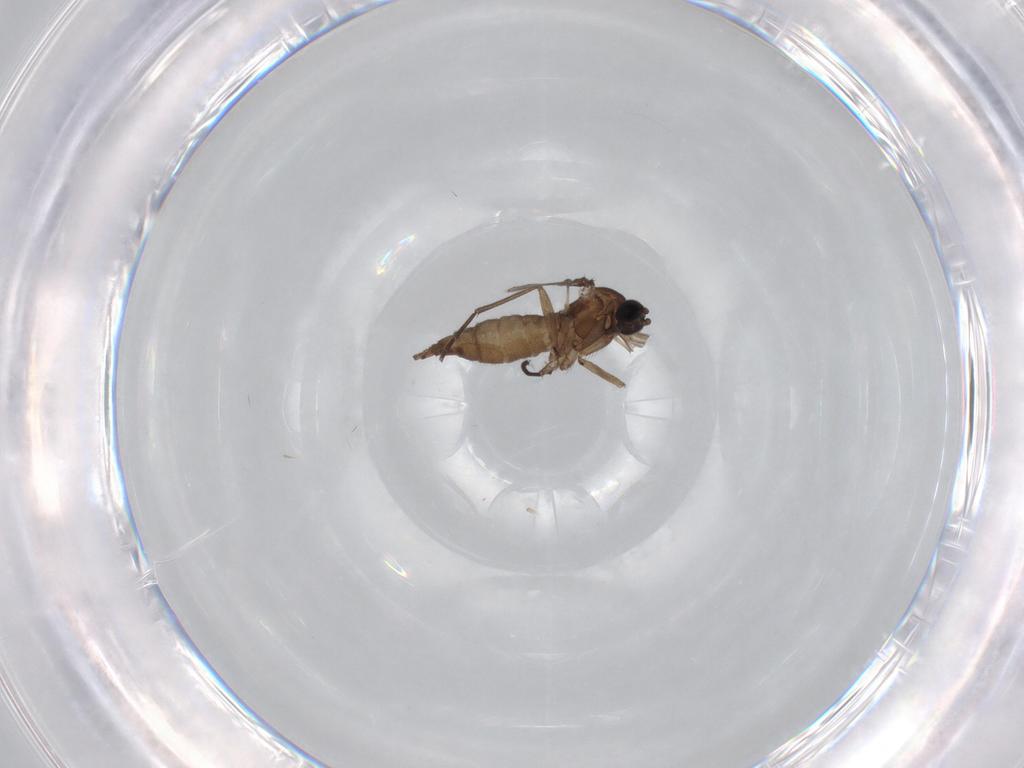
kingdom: Animalia
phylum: Arthropoda
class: Insecta
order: Diptera
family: Sciaridae
